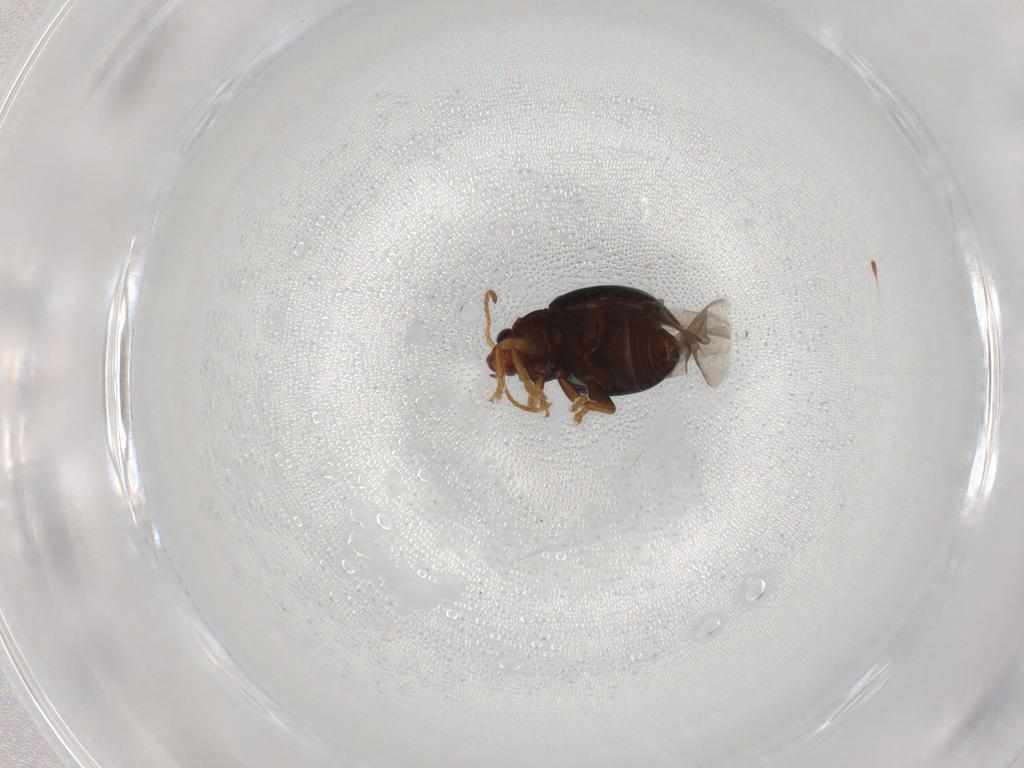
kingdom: Animalia
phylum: Arthropoda
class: Insecta
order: Coleoptera
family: Chrysomelidae
